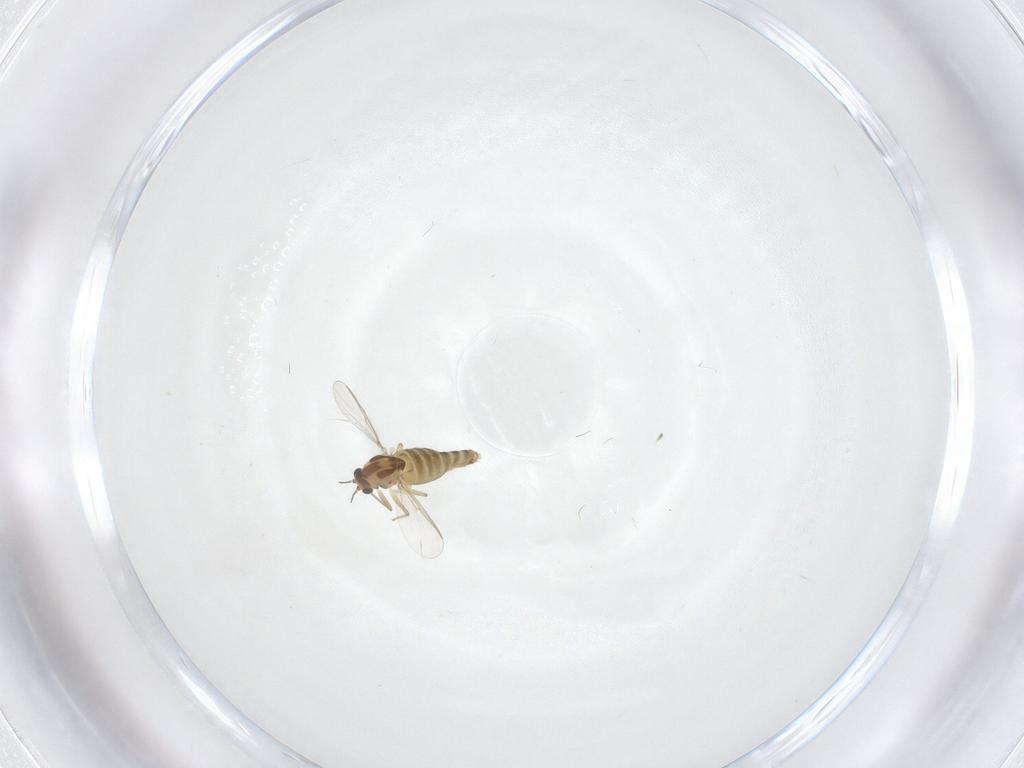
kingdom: Animalia
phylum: Arthropoda
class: Insecta
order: Diptera
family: Chironomidae
